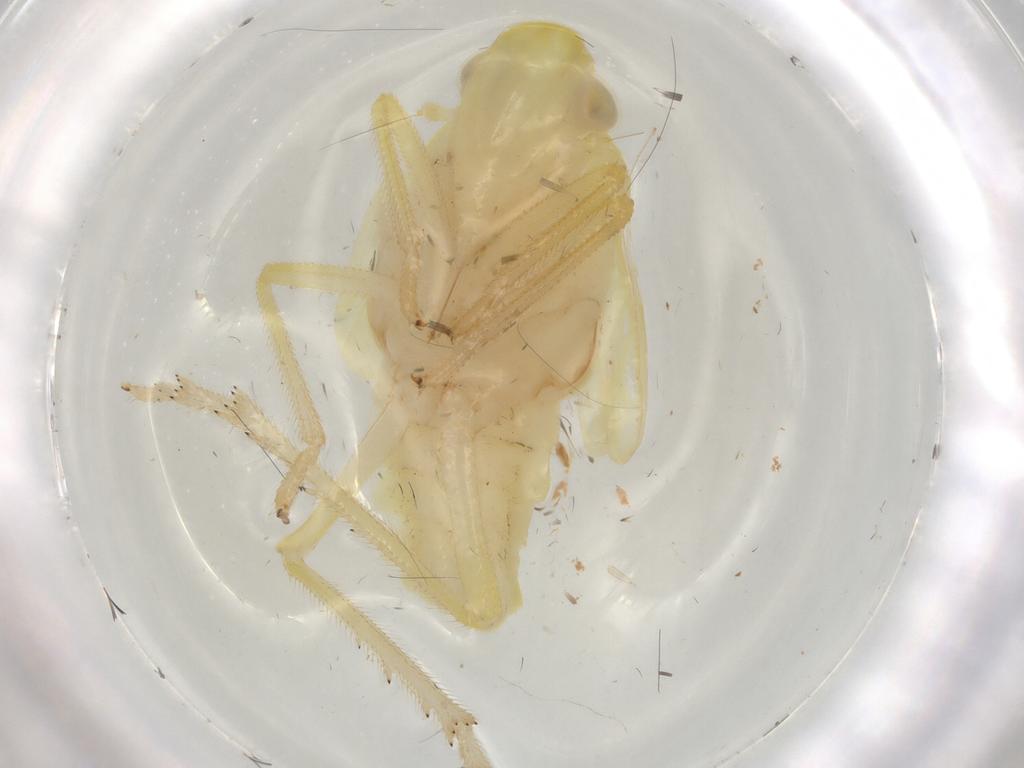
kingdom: Animalia
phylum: Arthropoda
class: Insecta
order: Hemiptera
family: Tropiduchidae
